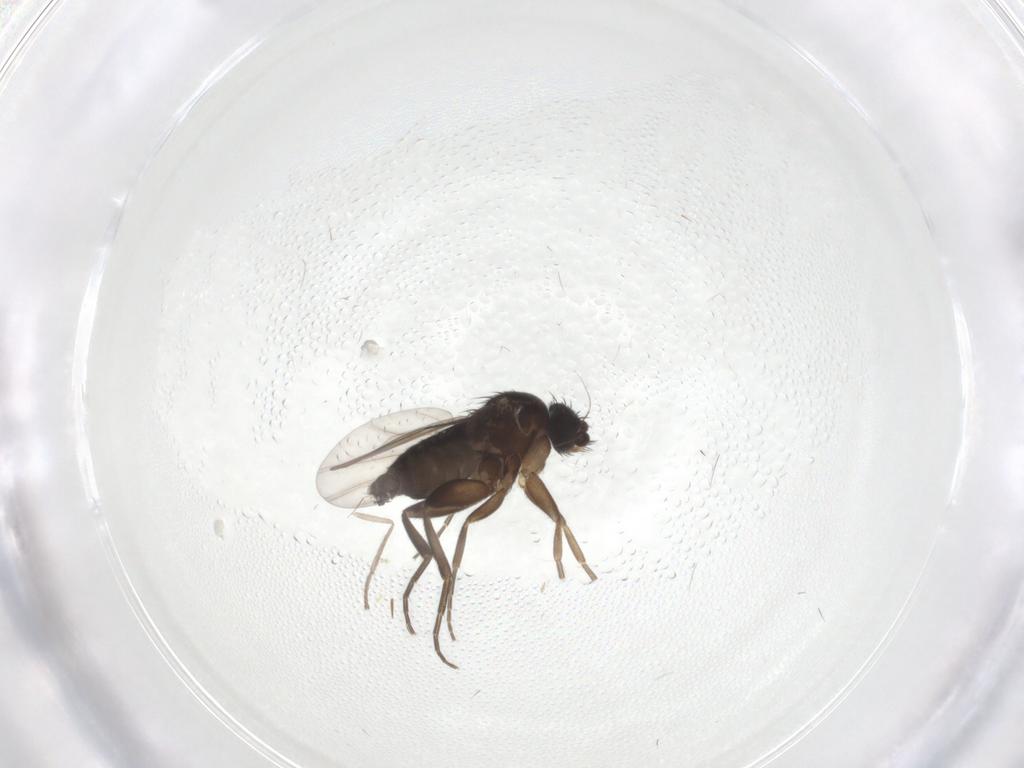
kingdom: Animalia
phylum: Arthropoda
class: Insecta
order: Diptera
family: Phoridae
